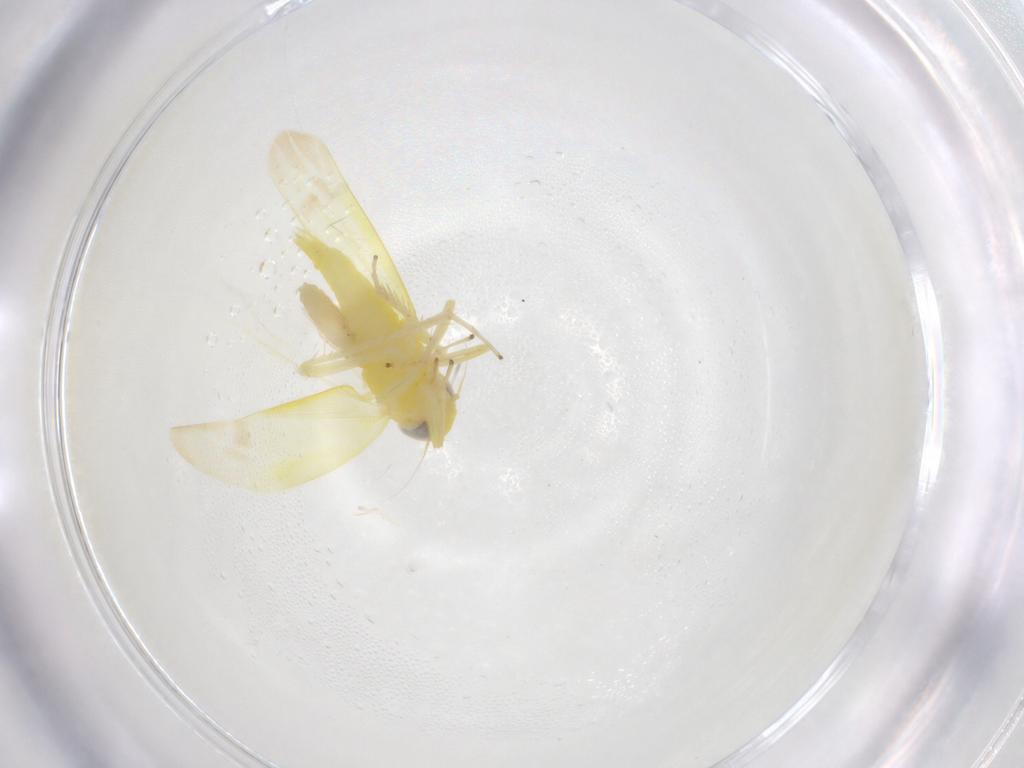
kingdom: Animalia
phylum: Arthropoda
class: Insecta
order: Hemiptera
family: Cicadellidae
